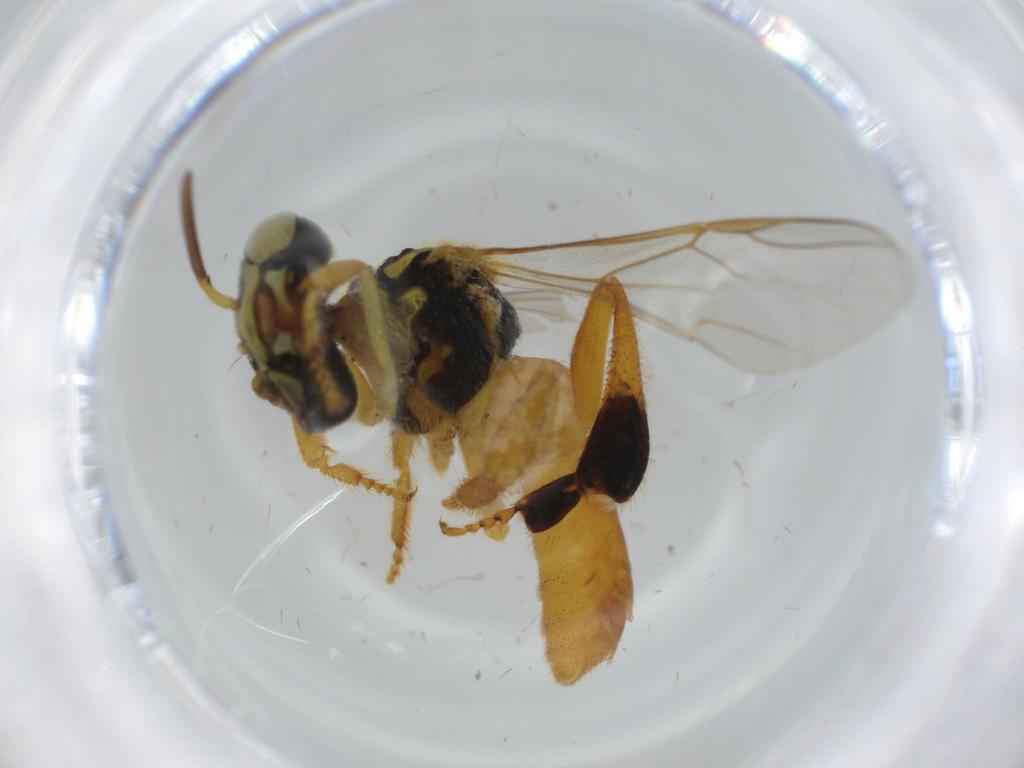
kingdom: Animalia
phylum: Arthropoda
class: Insecta
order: Hymenoptera
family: Apidae
